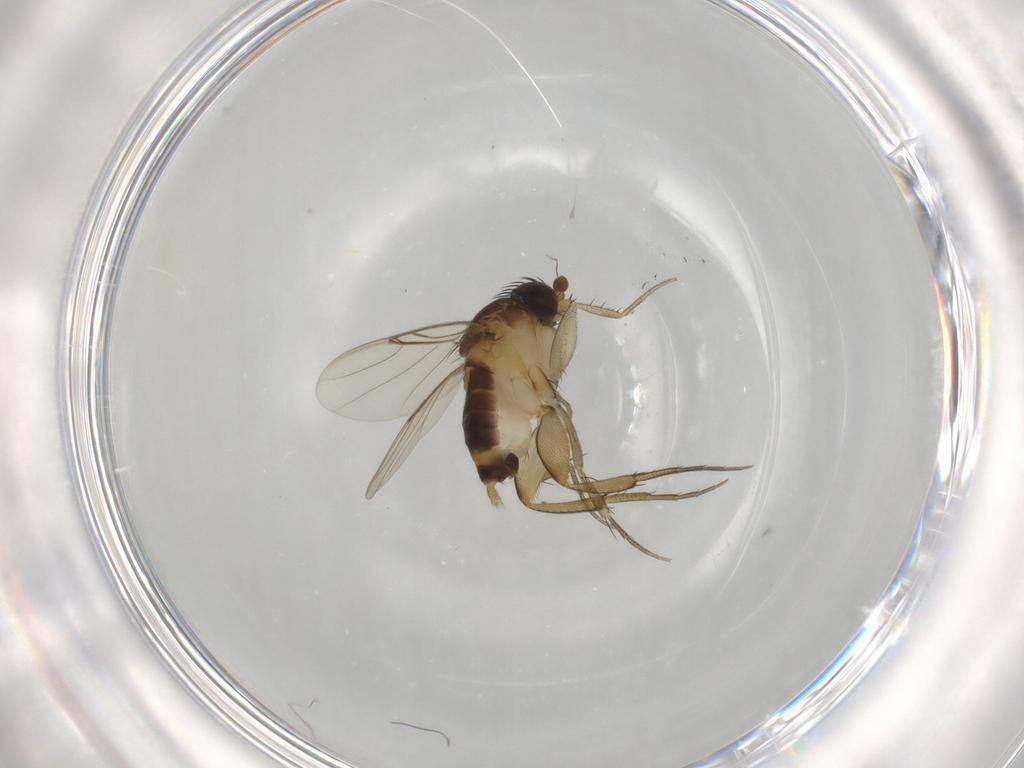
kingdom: Animalia
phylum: Arthropoda
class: Insecta
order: Diptera
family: Phoridae
